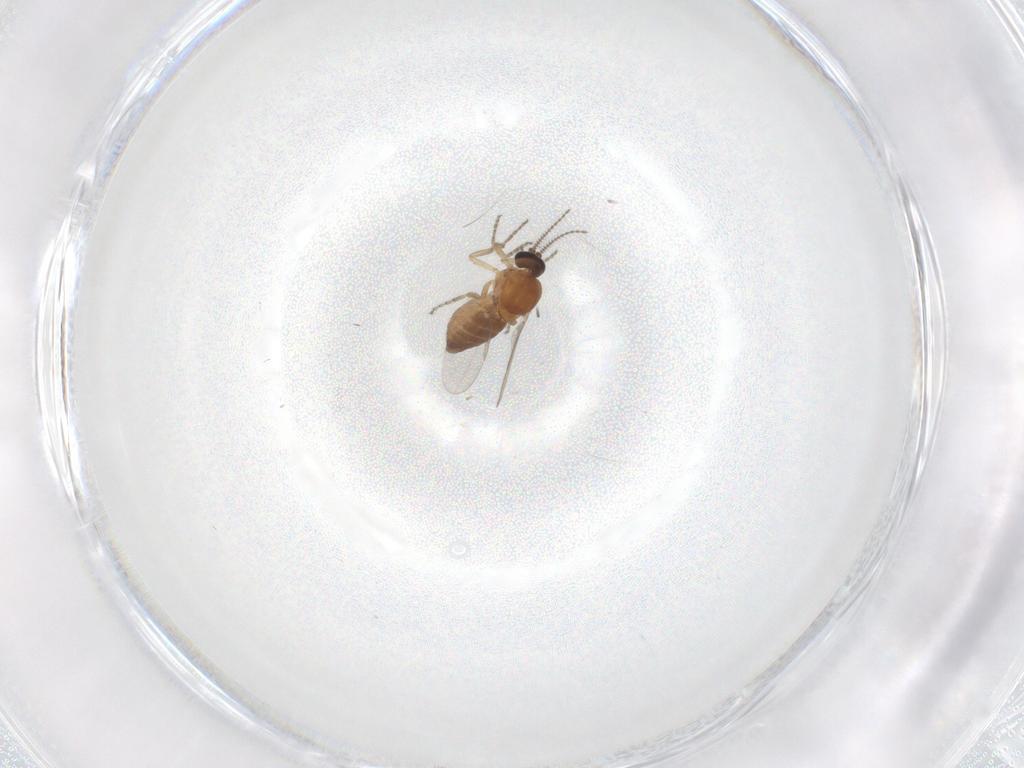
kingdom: Animalia
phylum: Arthropoda
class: Insecta
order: Diptera
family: Ceratopogonidae
